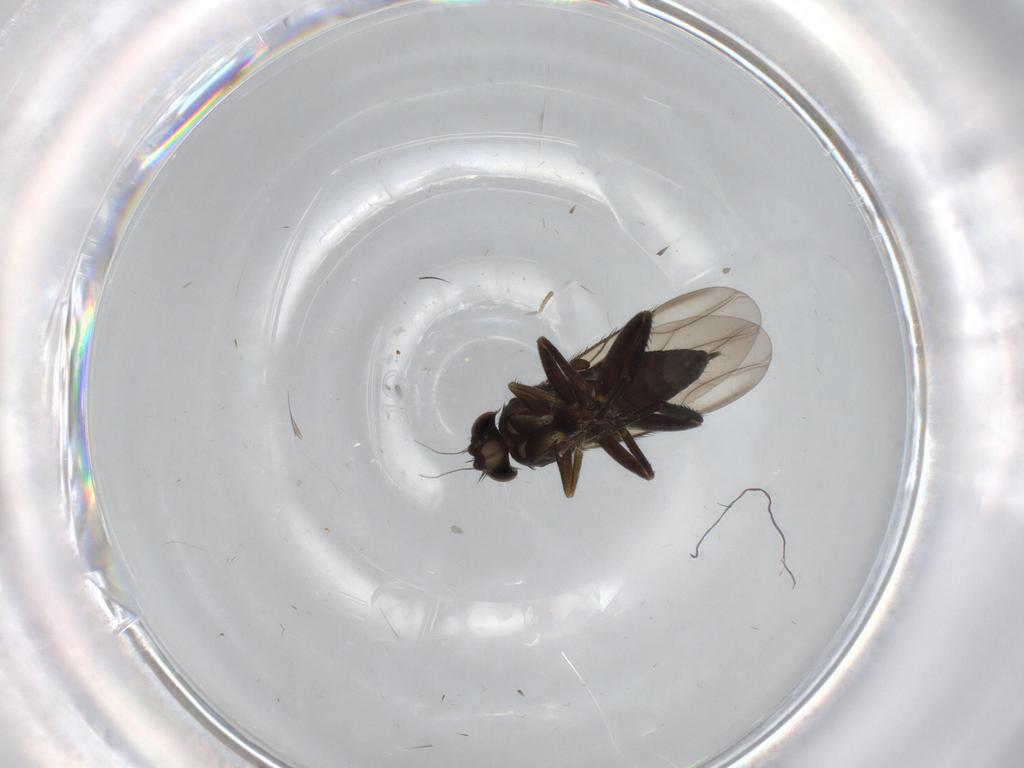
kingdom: Animalia
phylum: Arthropoda
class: Insecta
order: Diptera
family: Phoridae
